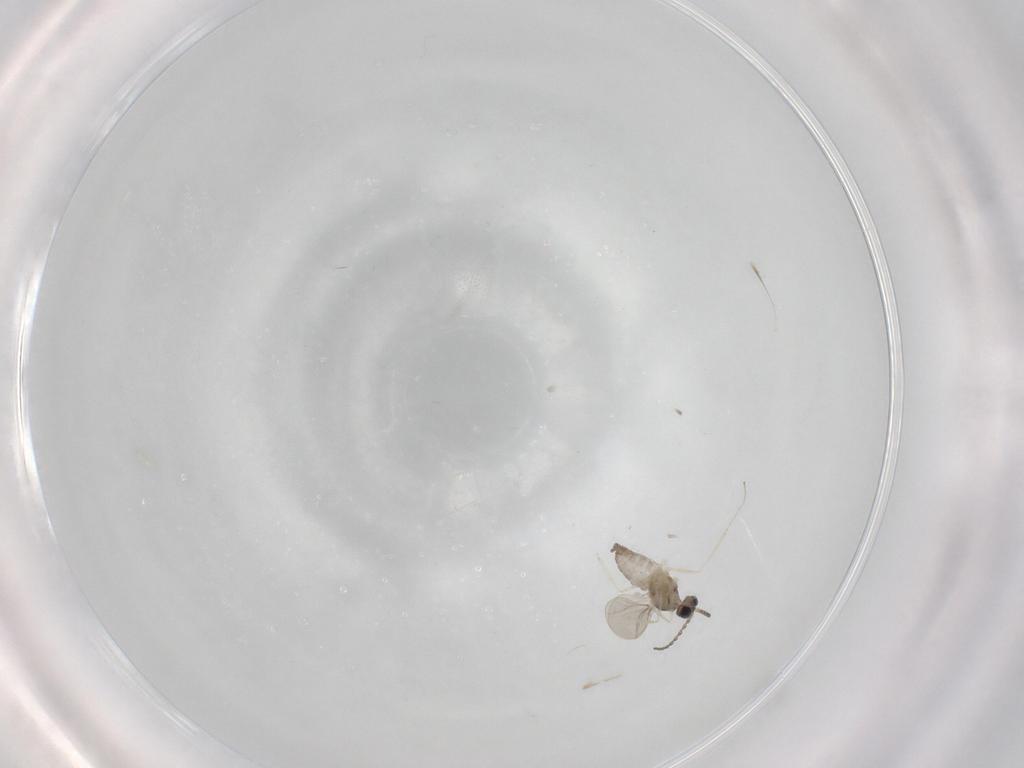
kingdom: Animalia
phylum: Arthropoda
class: Insecta
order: Diptera
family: Cecidomyiidae
